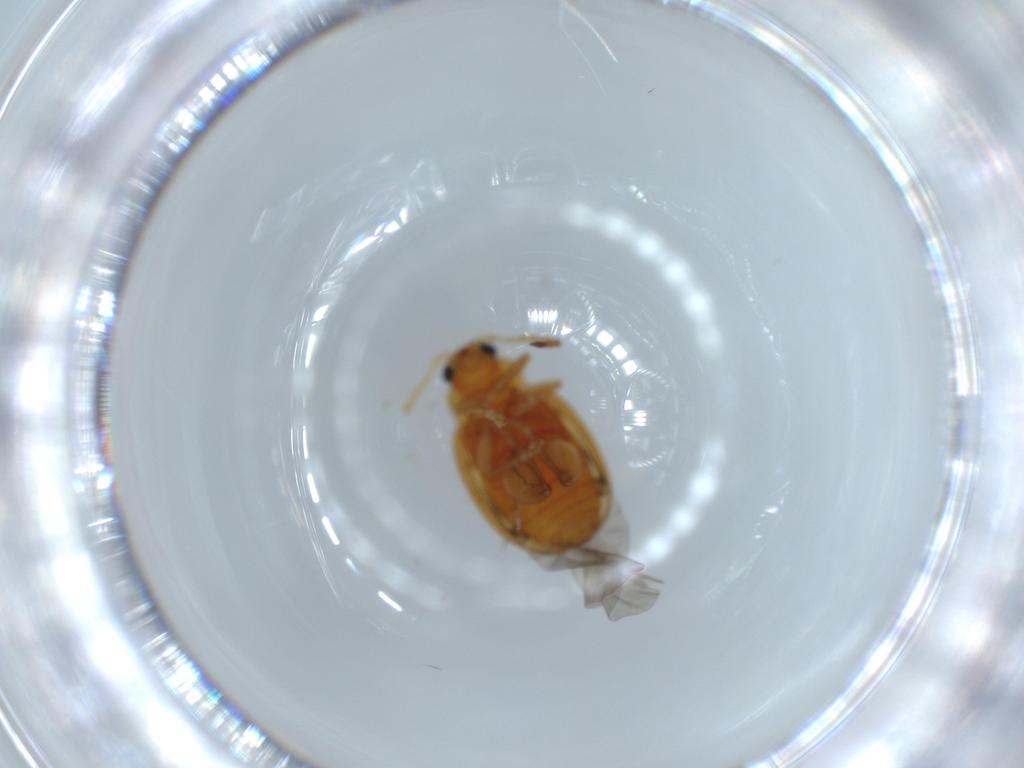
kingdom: Animalia
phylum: Arthropoda
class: Insecta
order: Coleoptera
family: Chrysomelidae
